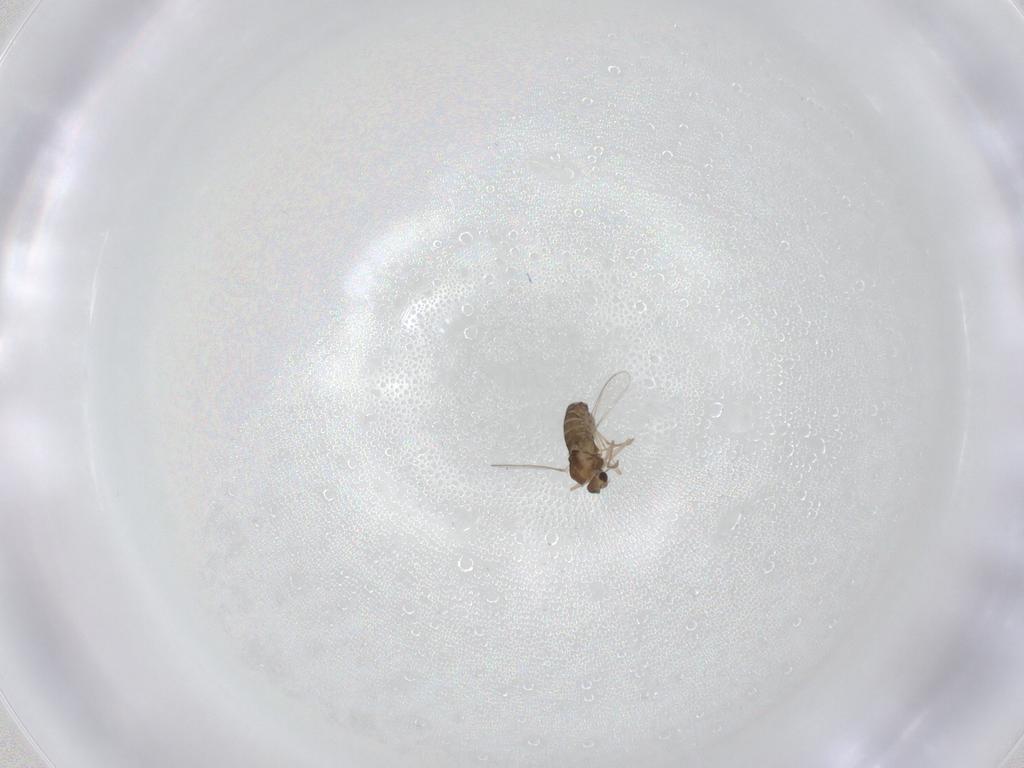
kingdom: Animalia
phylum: Arthropoda
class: Insecta
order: Diptera
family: Chironomidae
